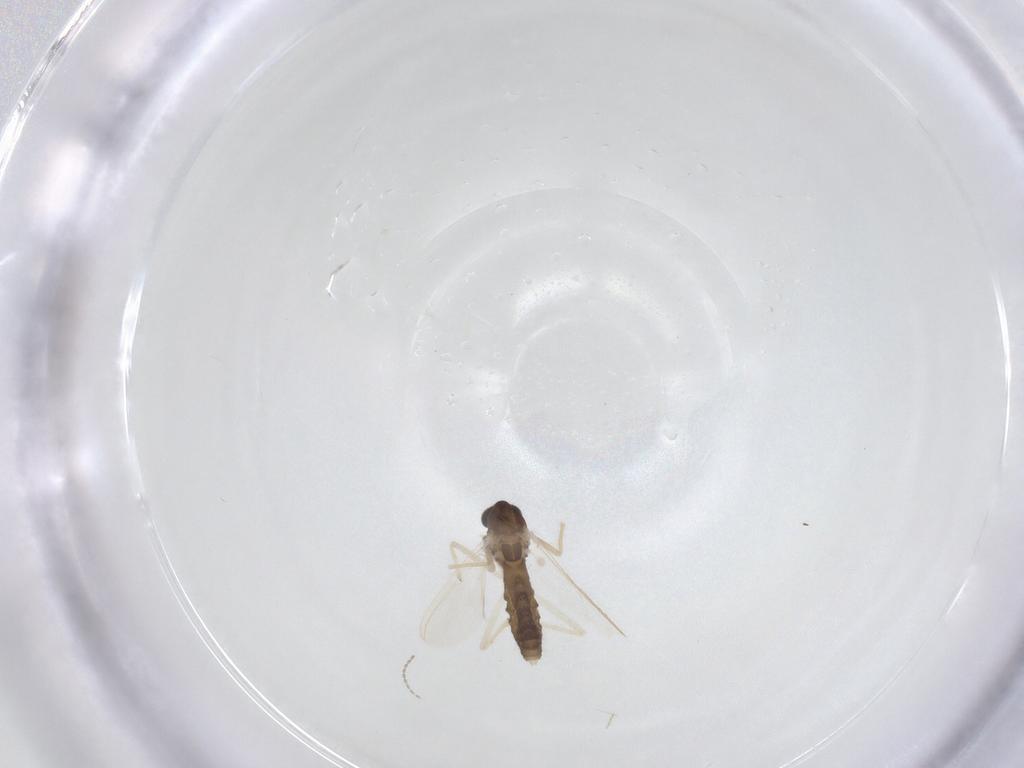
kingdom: Animalia
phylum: Arthropoda
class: Insecta
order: Diptera
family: Chironomidae
